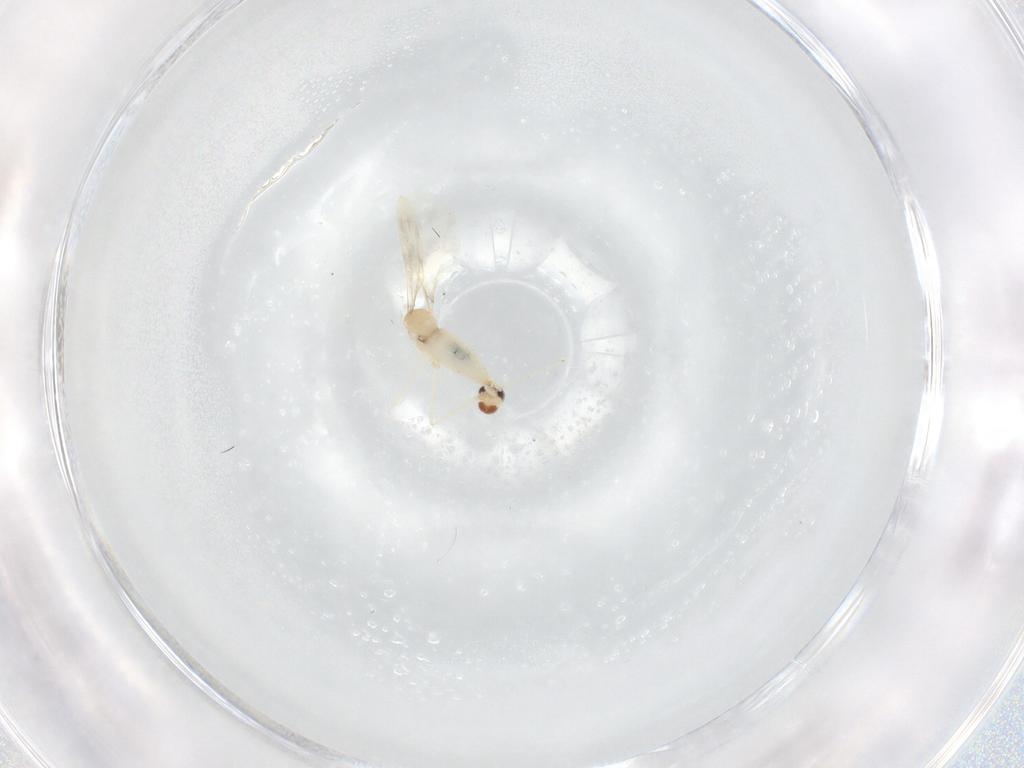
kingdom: Animalia
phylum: Arthropoda
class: Insecta
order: Diptera
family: Cecidomyiidae
